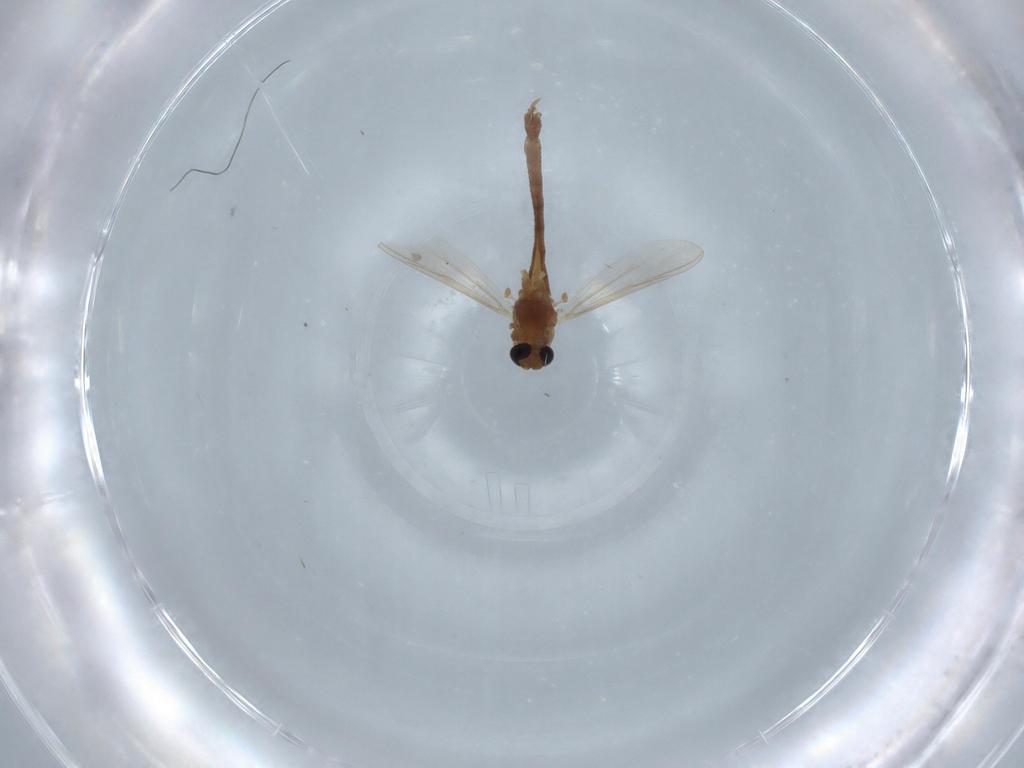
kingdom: Animalia
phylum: Arthropoda
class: Insecta
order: Diptera
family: Chironomidae
